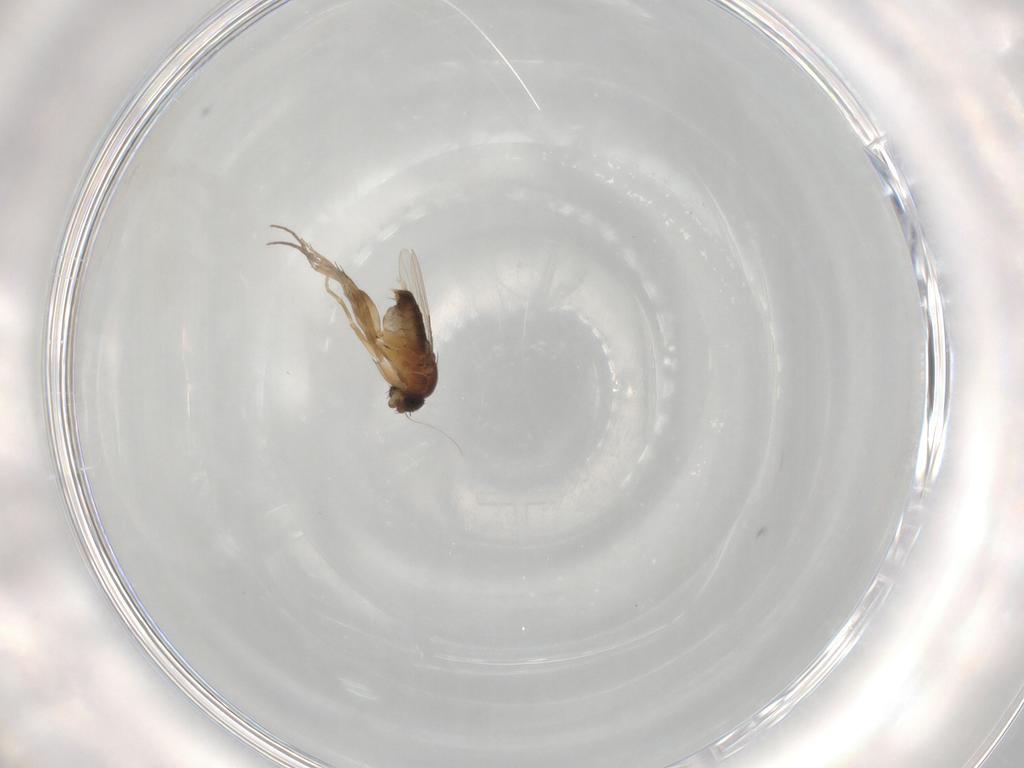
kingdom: Animalia
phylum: Arthropoda
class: Insecta
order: Diptera
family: Phoridae
